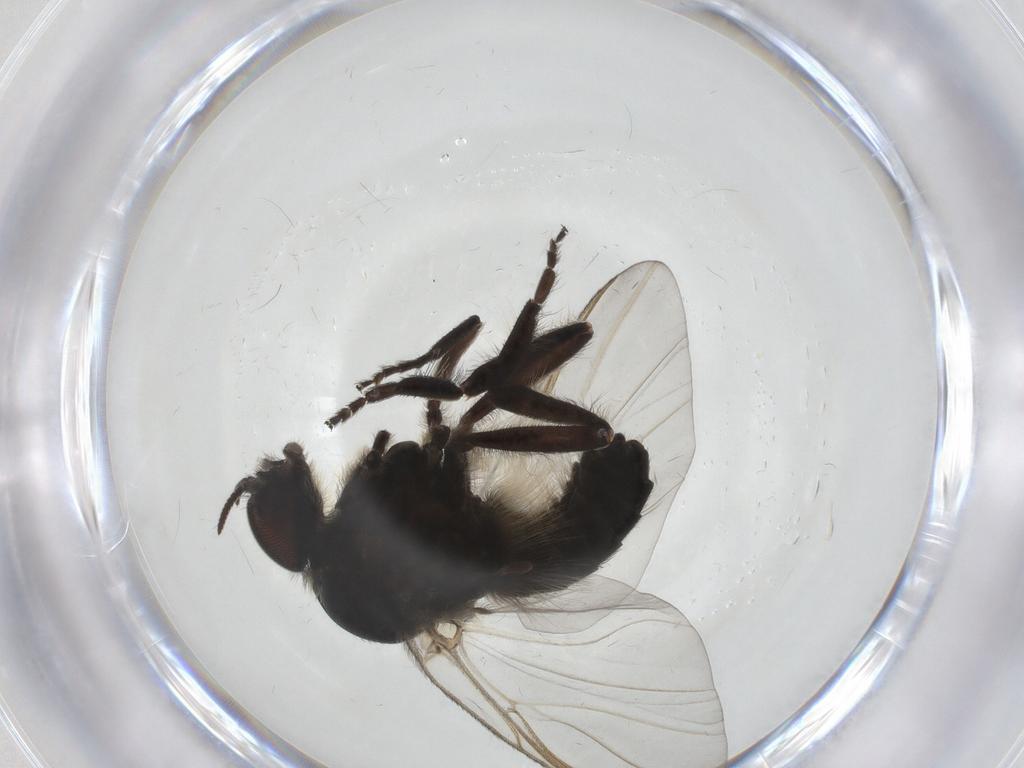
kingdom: Animalia
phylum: Arthropoda
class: Insecta
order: Diptera
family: Simuliidae
